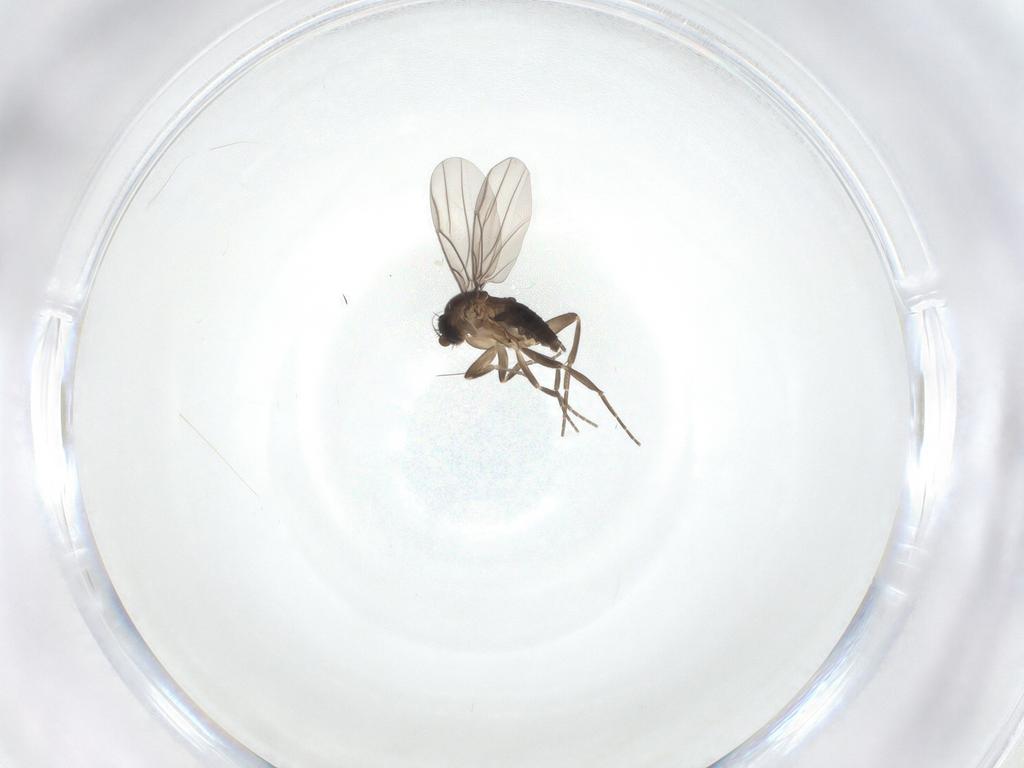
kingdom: Animalia
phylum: Arthropoda
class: Insecta
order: Diptera
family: Phoridae
